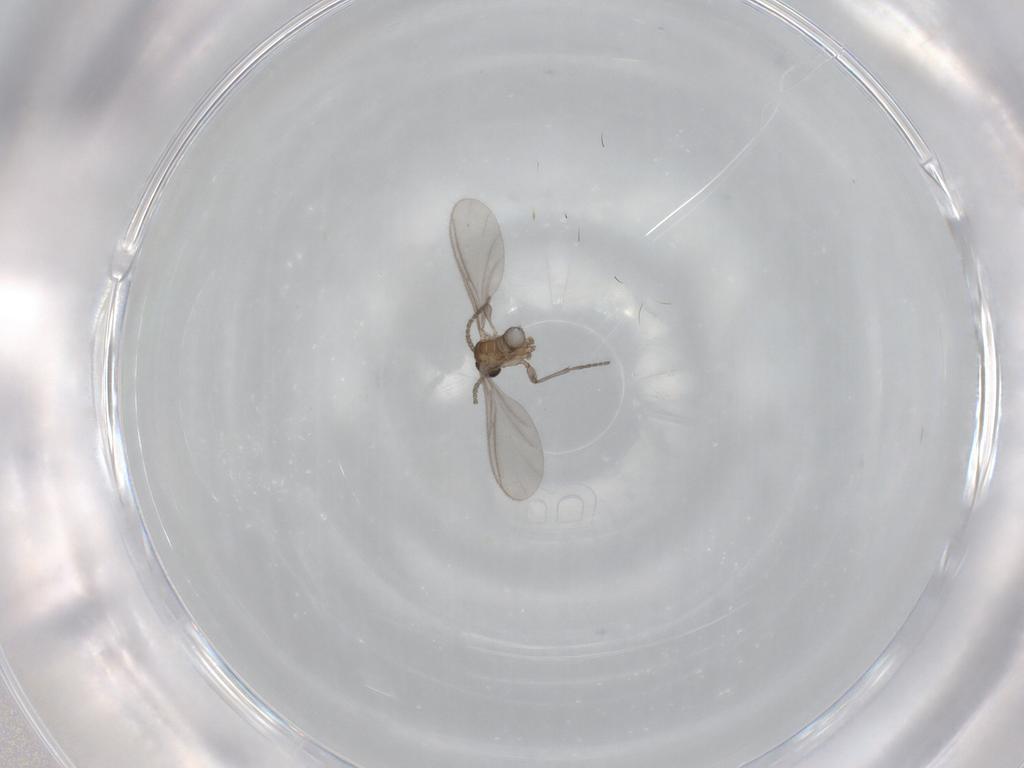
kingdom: Animalia
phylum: Arthropoda
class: Insecta
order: Diptera
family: Sciaridae
